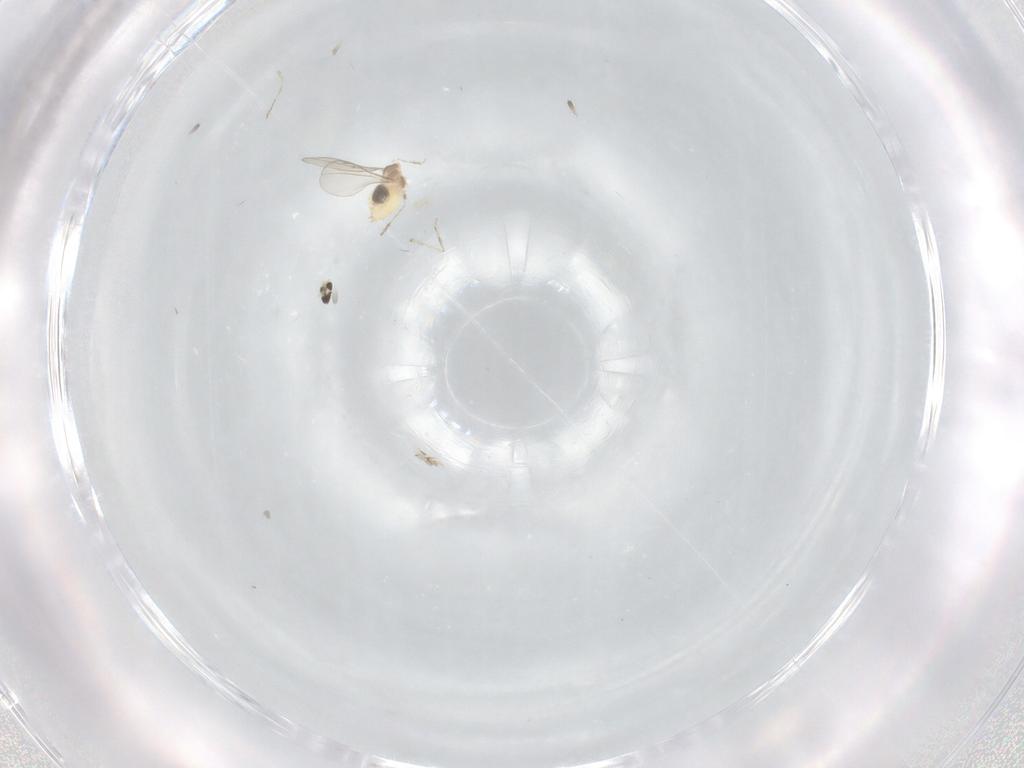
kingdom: Animalia
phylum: Arthropoda
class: Insecta
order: Diptera
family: Cecidomyiidae
